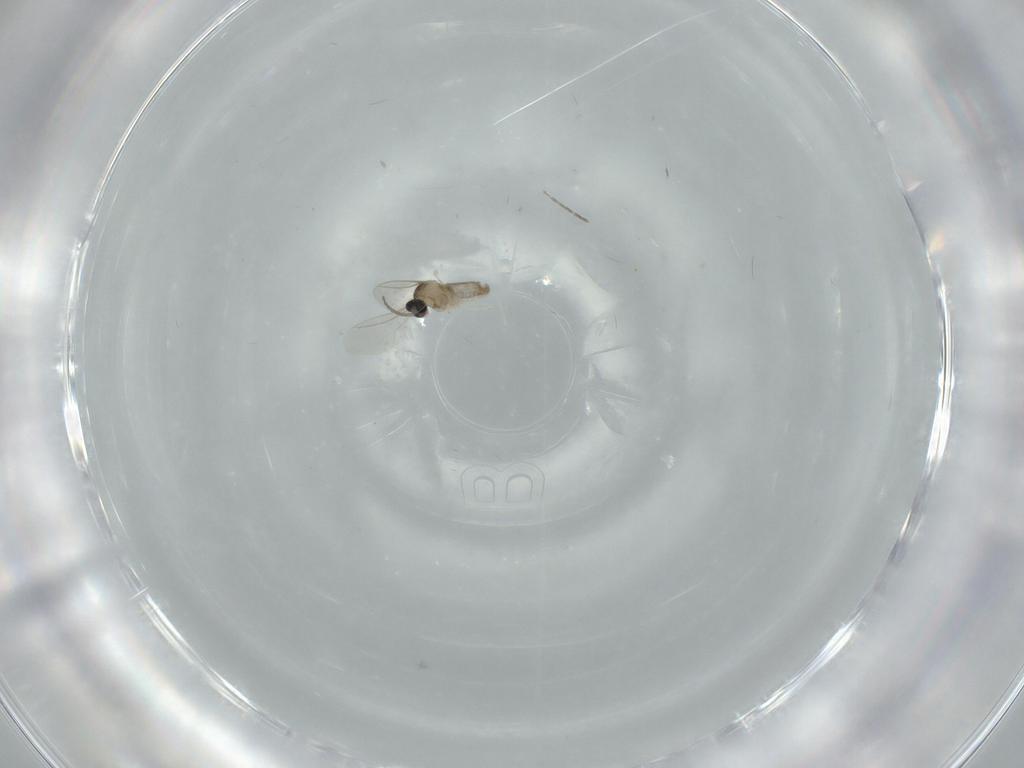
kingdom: Animalia
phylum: Arthropoda
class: Insecta
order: Diptera
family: Cecidomyiidae
